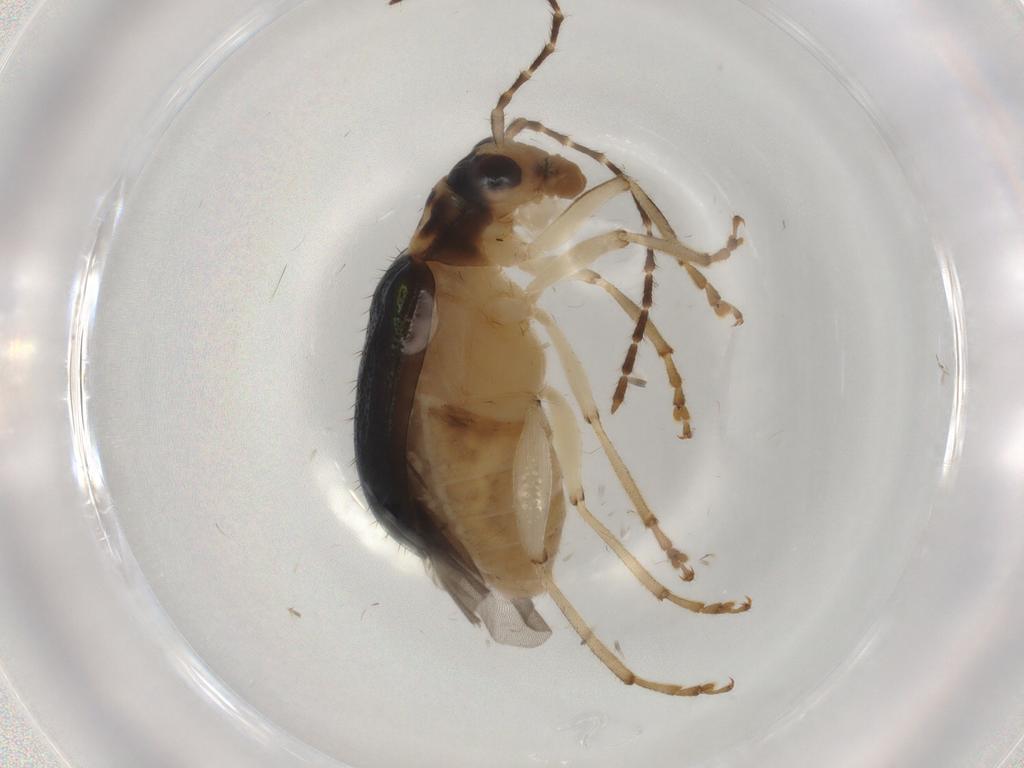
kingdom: Animalia
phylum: Arthropoda
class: Insecta
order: Coleoptera
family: Chrysomelidae
